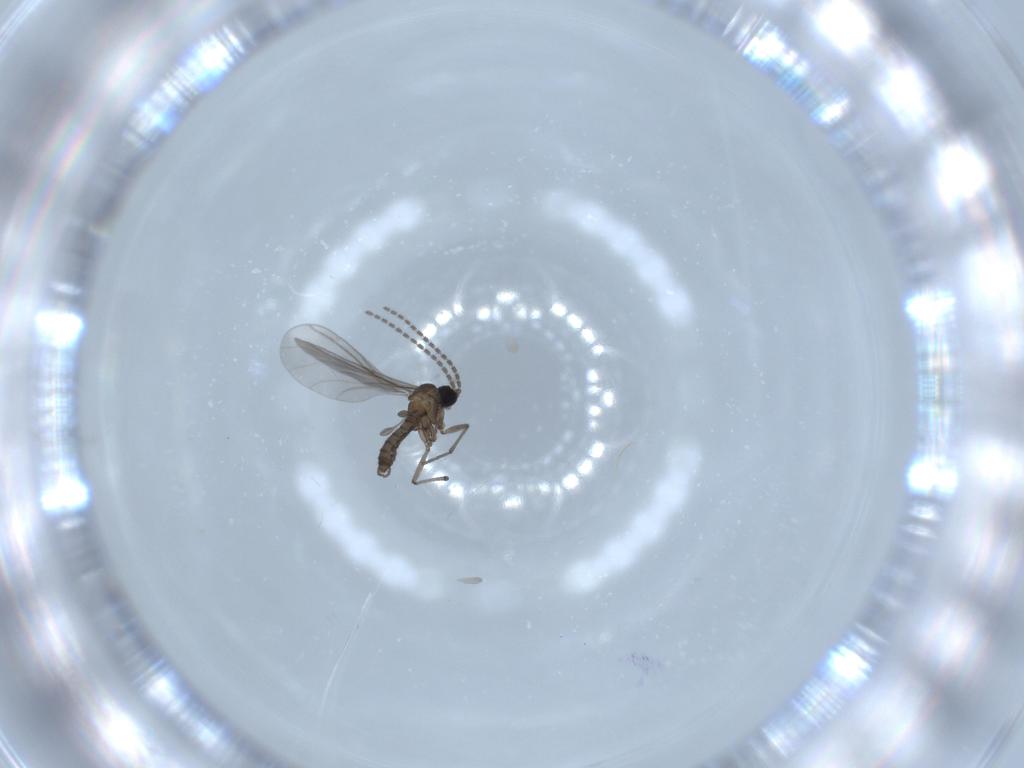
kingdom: Animalia
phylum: Arthropoda
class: Insecta
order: Diptera
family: Sciaridae
